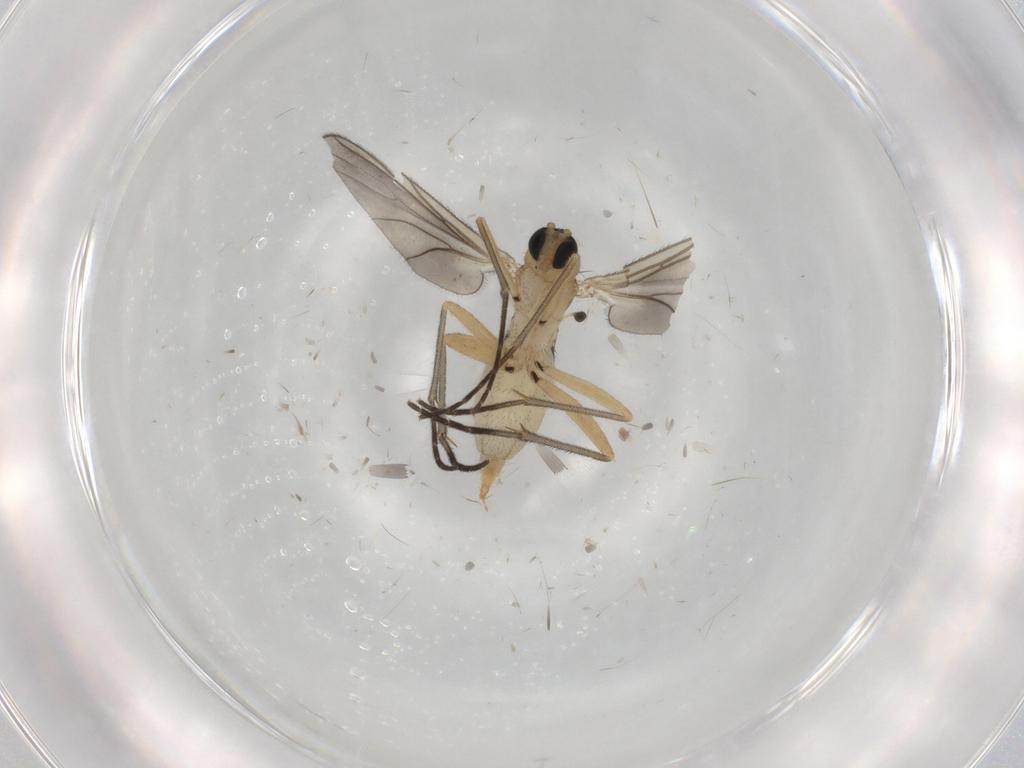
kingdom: Animalia
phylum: Arthropoda
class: Insecta
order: Diptera
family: Sciaridae
